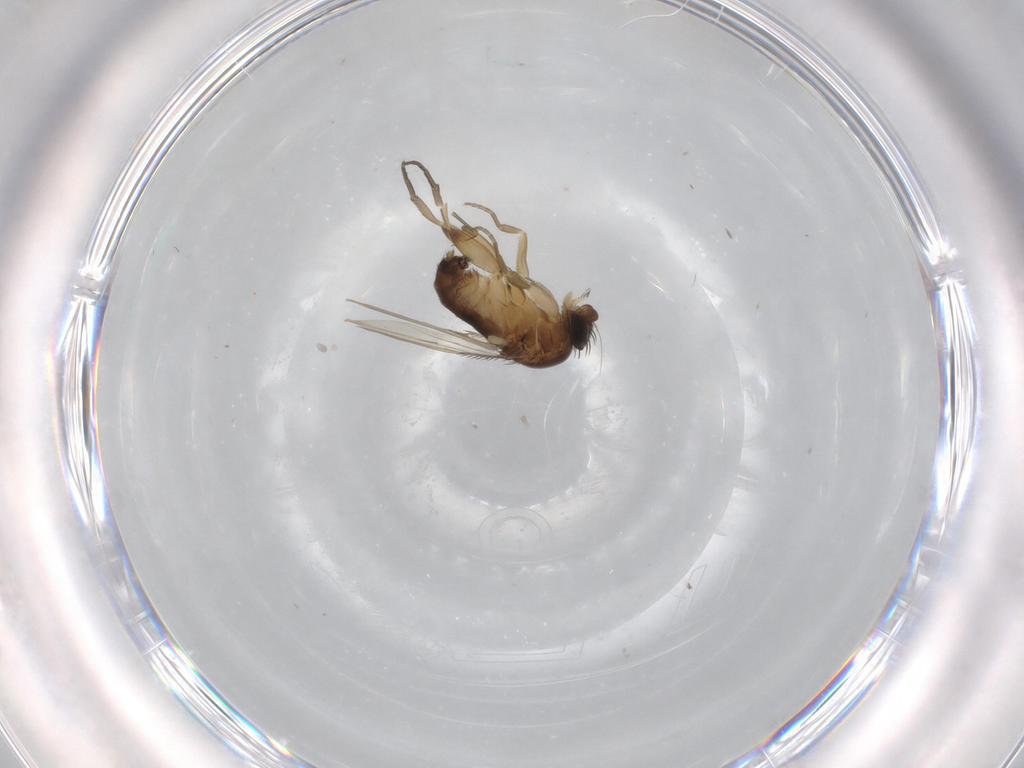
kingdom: Animalia
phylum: Arthropoda
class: Insecta
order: Diptera
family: Phoridae
